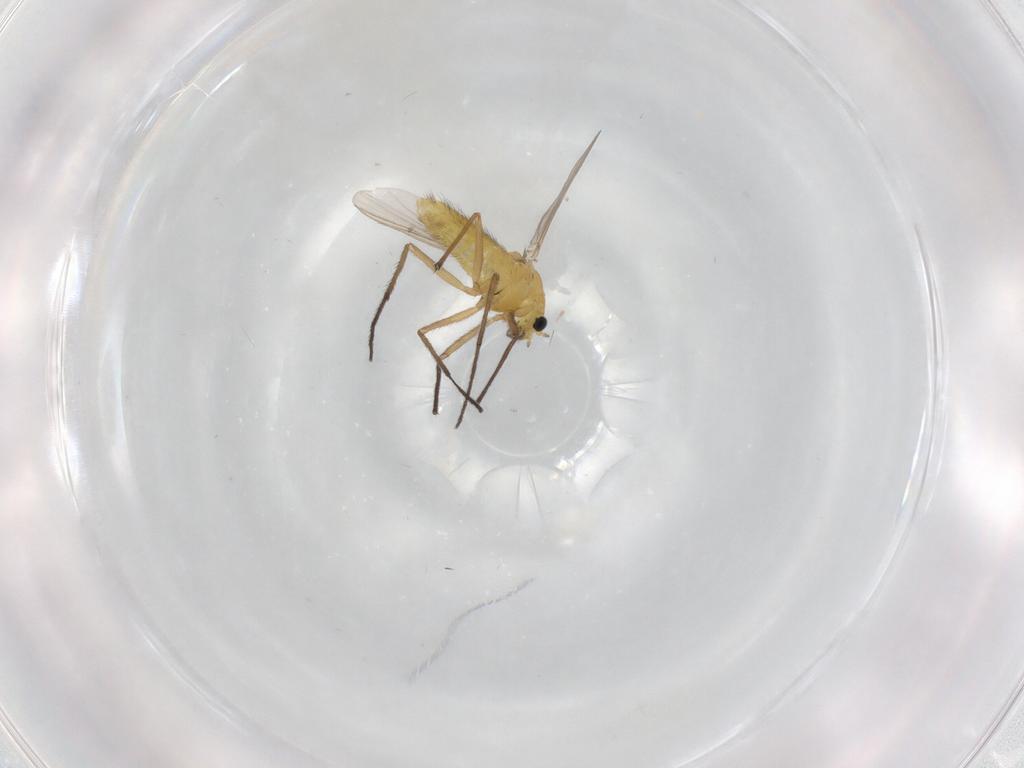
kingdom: Animalia
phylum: Arthropoda
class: Insecta
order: Diptera
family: Chironomidae
